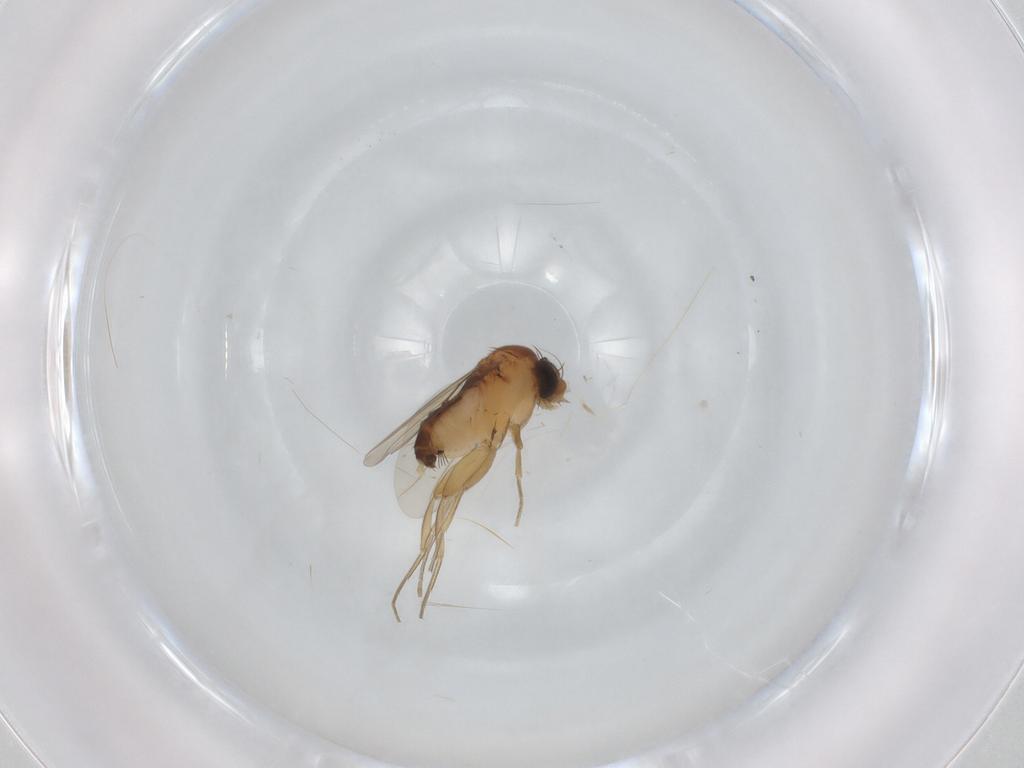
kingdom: Animalia
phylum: Arthropoda
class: Insecta
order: Diptera
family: Phoridae
